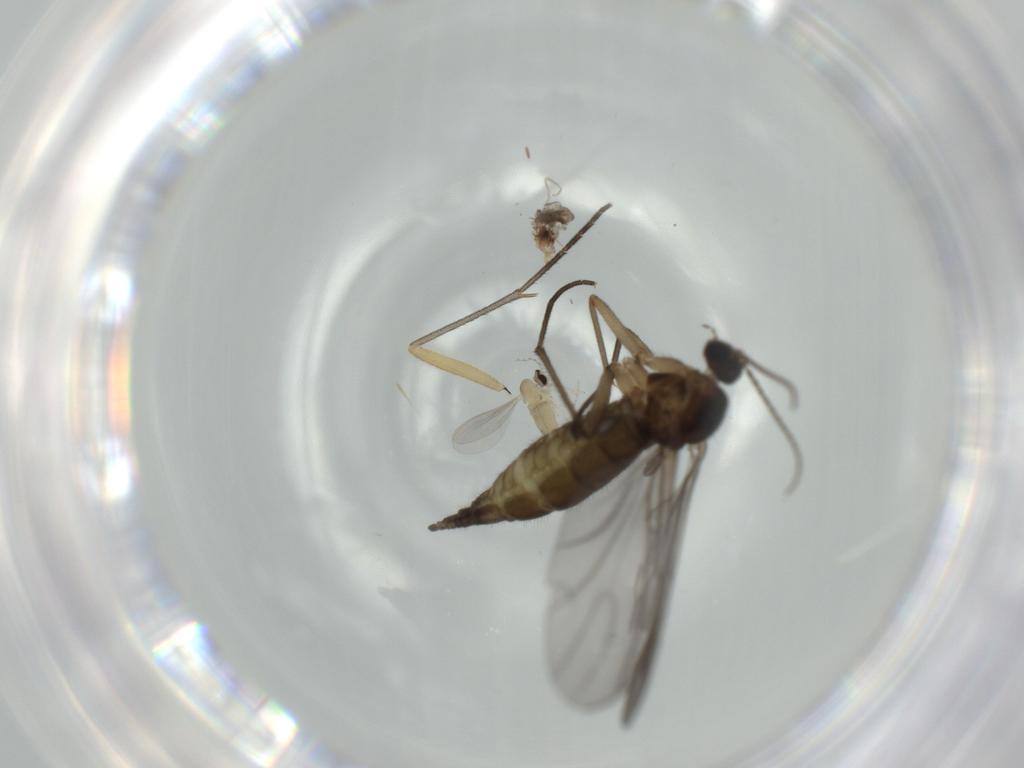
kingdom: Animalia
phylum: Arthropoda
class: Insecta
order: Diptera
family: Sciaridae
